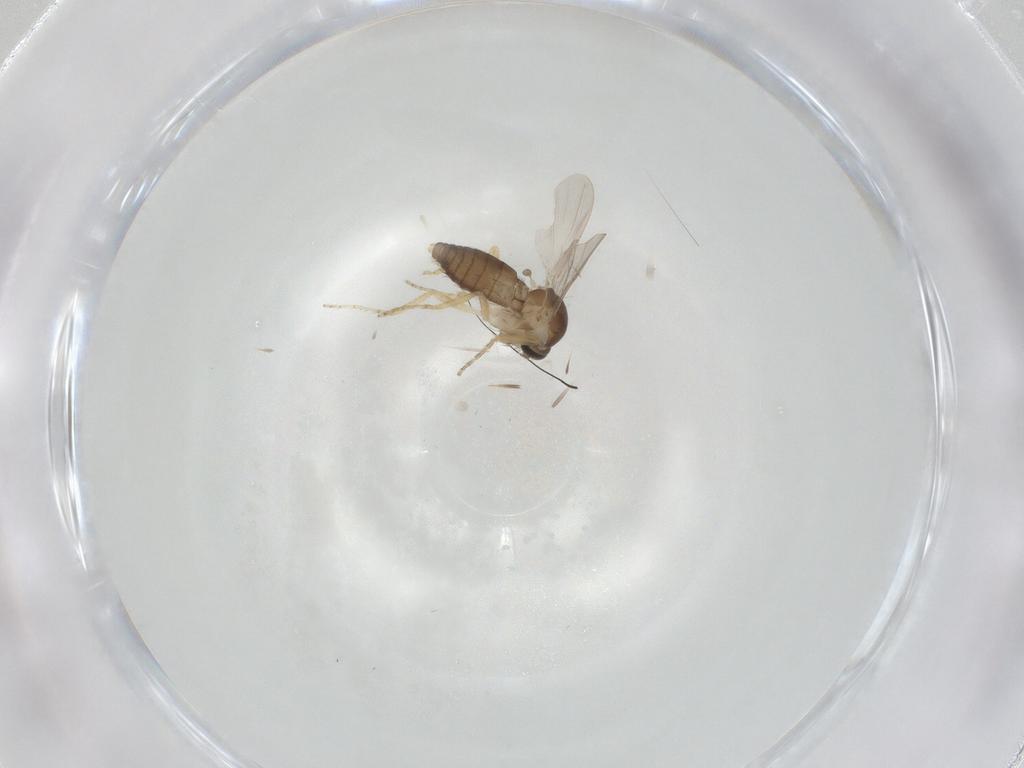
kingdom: Animalia
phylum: Arthropoda
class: Insecta
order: Diptera
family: Ceratopogonidae
